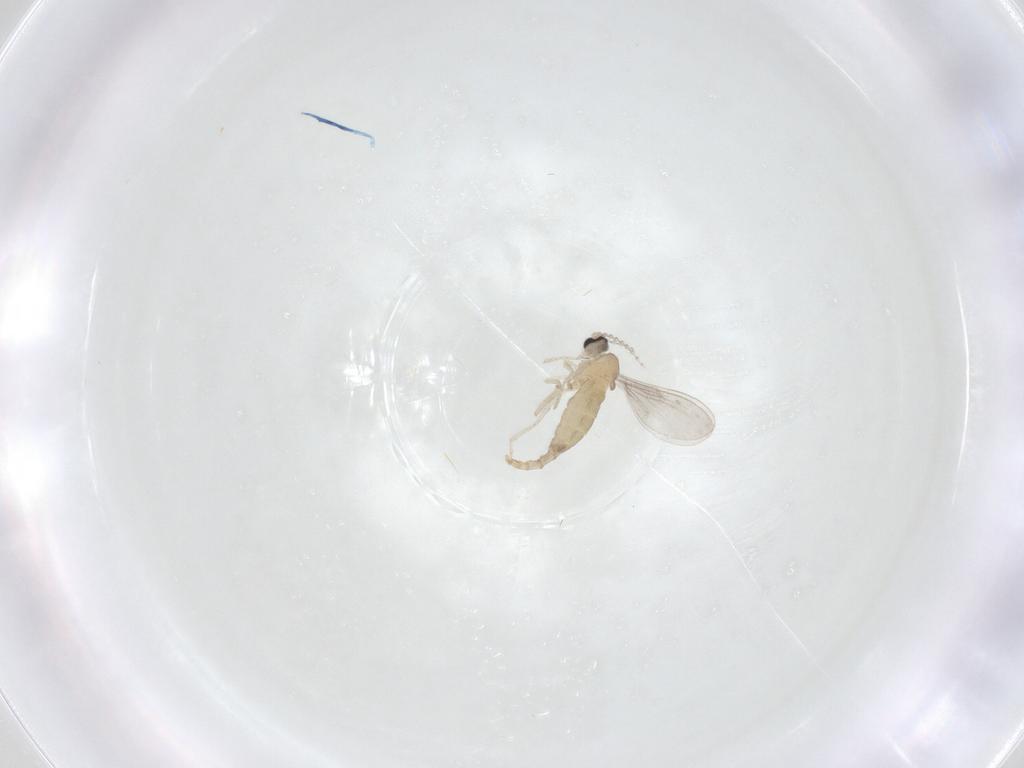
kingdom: Animalia
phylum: Arthropoda
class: Insecta
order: Diptera
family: Cecidomyiidae
